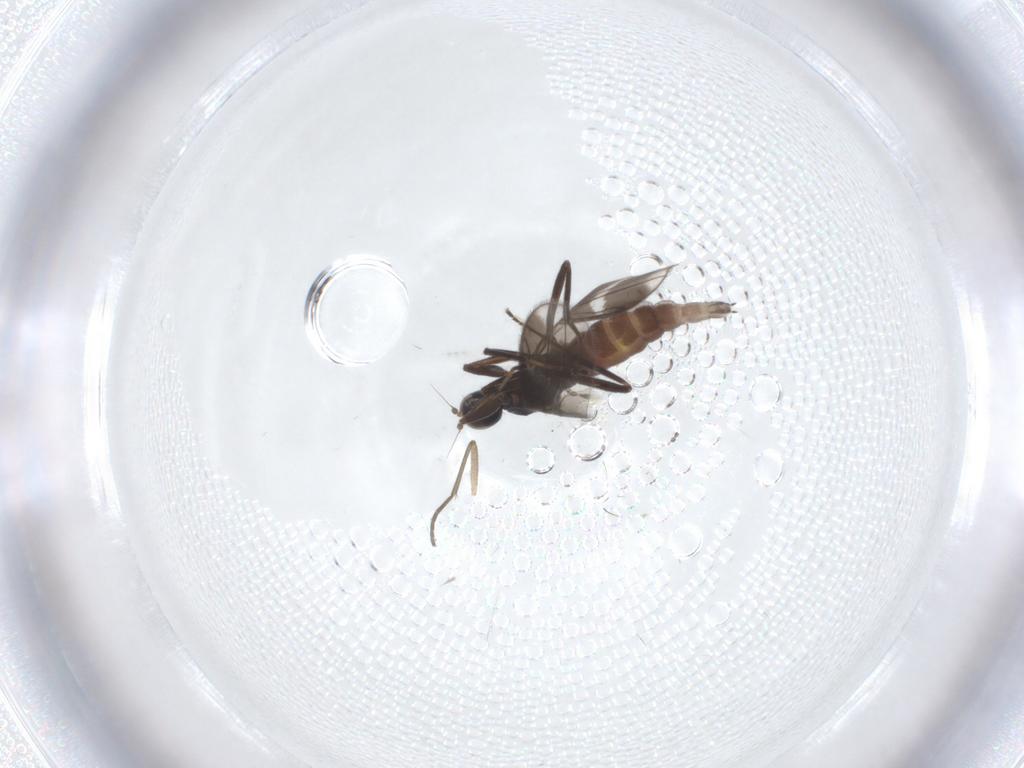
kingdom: Animalia
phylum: Arthropoda
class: Insecta
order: Diptera
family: Hybotidae
